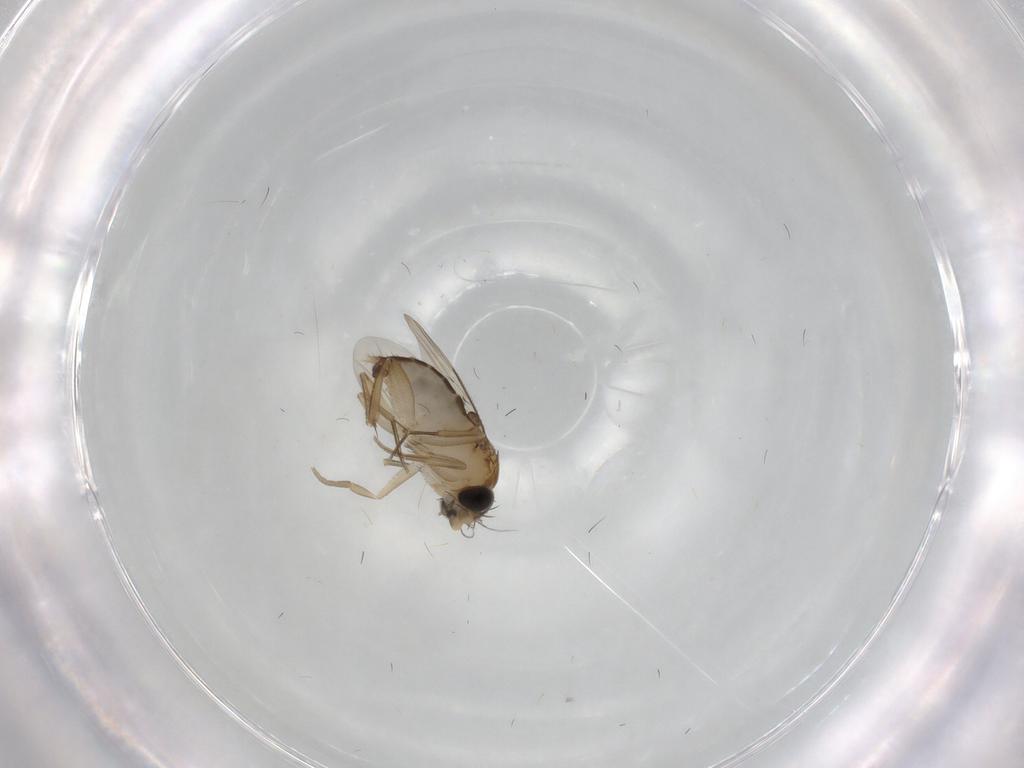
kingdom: Animalia
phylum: Arthropoda
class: Insecta
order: Diptera
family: Phoridae
